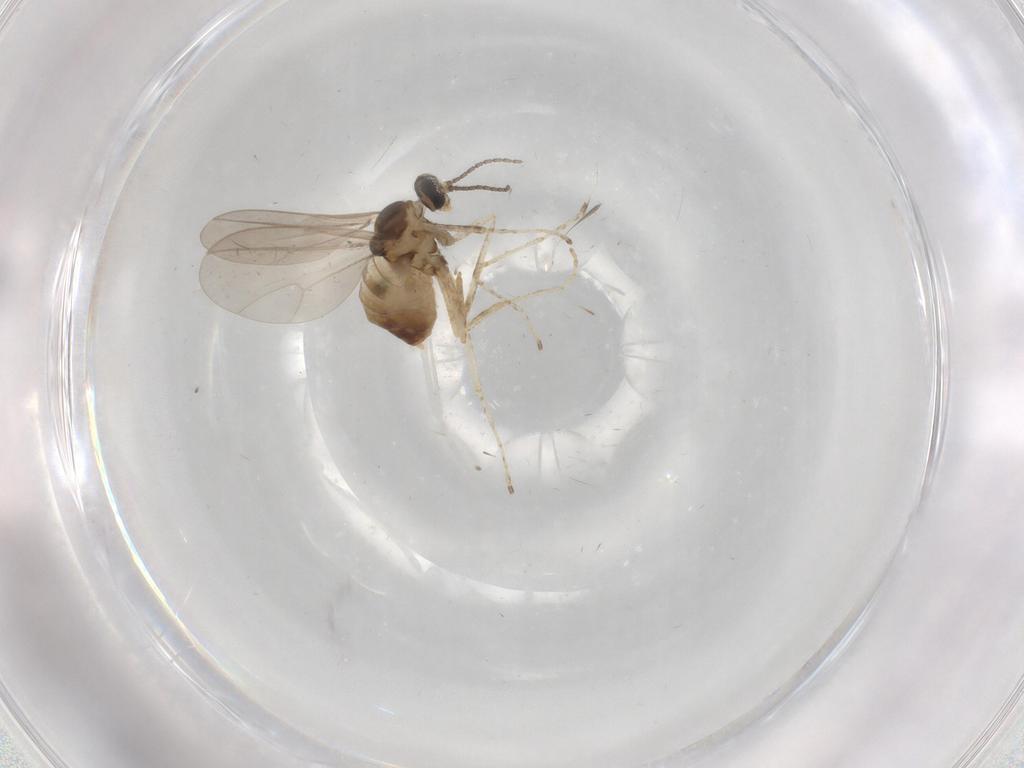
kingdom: Animalia
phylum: Arthropoda
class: Insecta
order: Diptera
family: Cecidomyiidae
